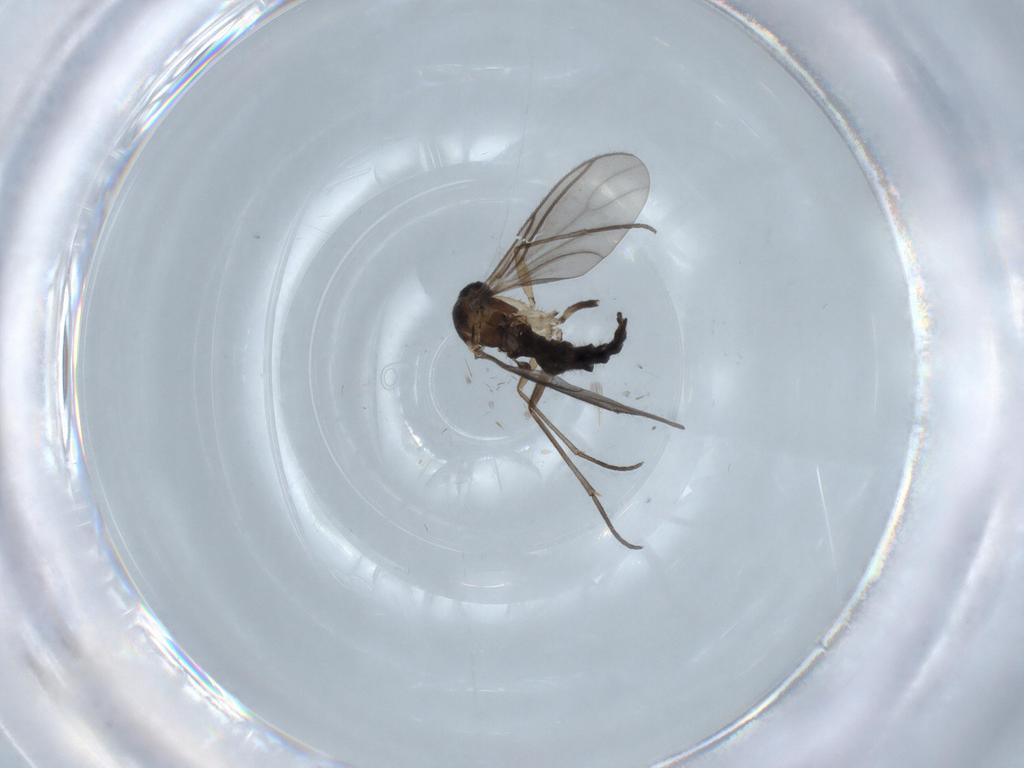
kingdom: Animalia
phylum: Arthropoda
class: Insecta
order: Diptera
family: Sciaridae
